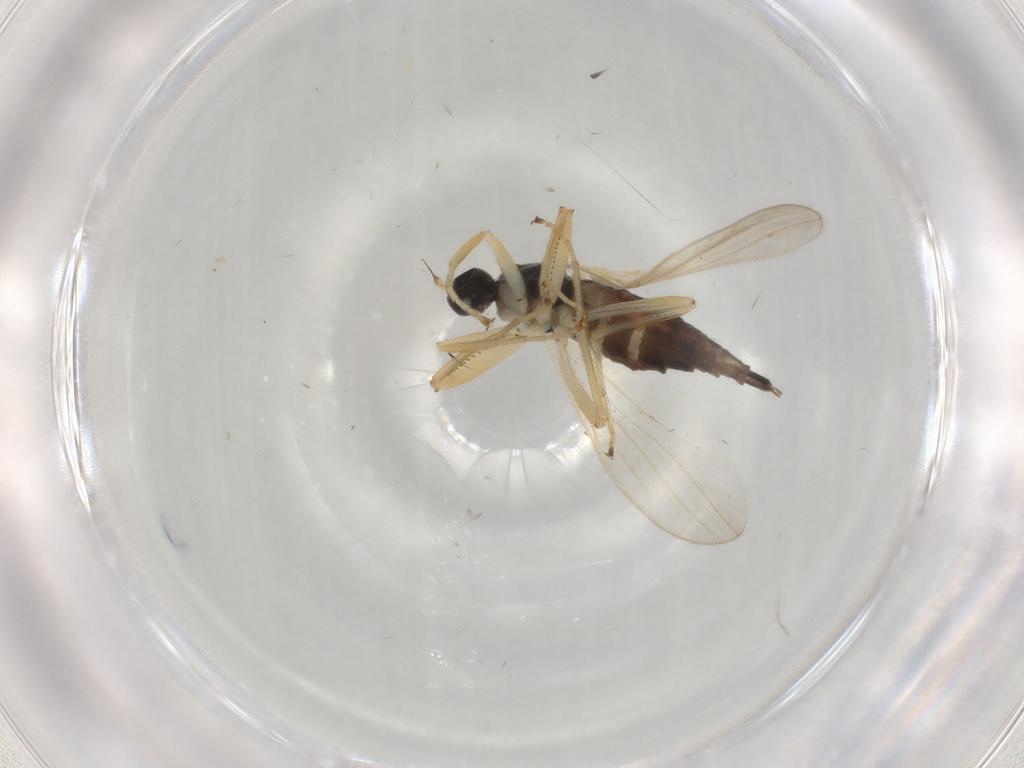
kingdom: Animalia
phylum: Arthropoda
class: Insecta
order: Diptera
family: Hybotidae
